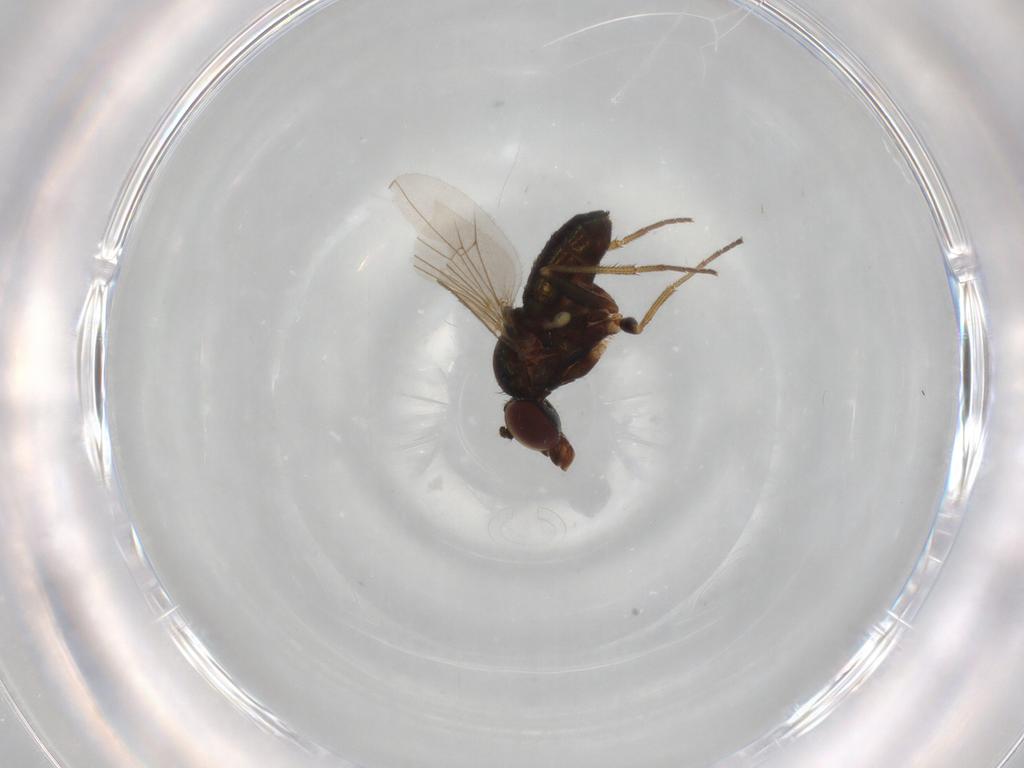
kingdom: Animalia
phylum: Arthropoda
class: Insecta
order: Diptera
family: Dolichopodidae
